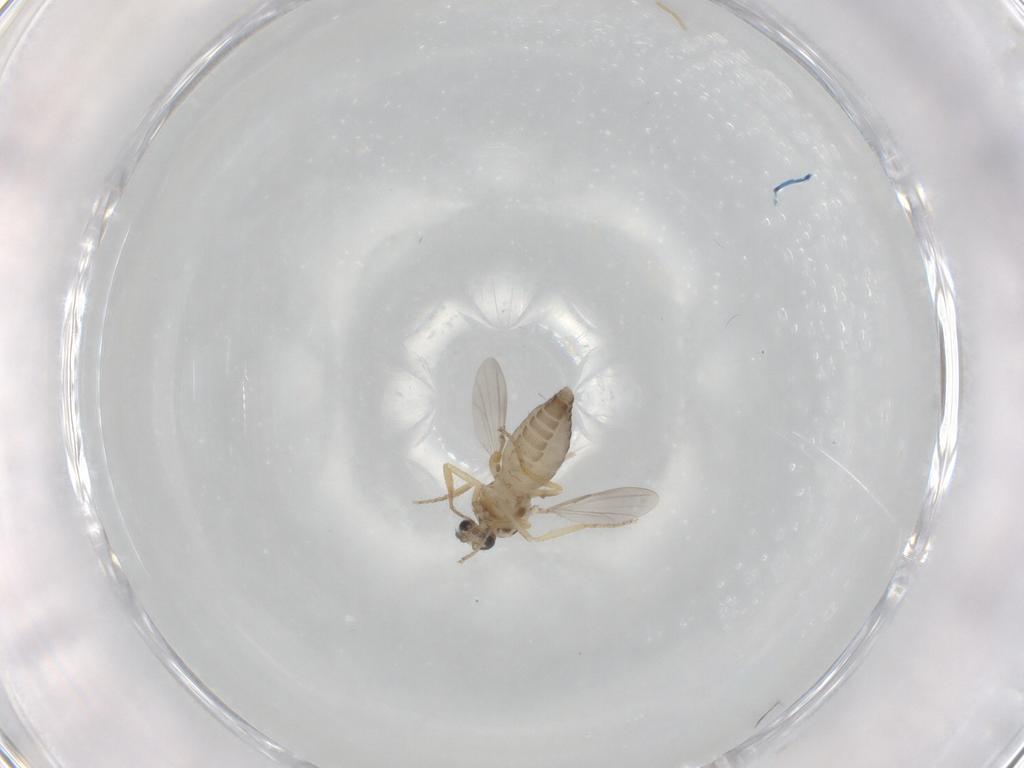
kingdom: Animalia
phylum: Arthropoda
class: Insecta
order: Diptera
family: Ceratopogonidae
